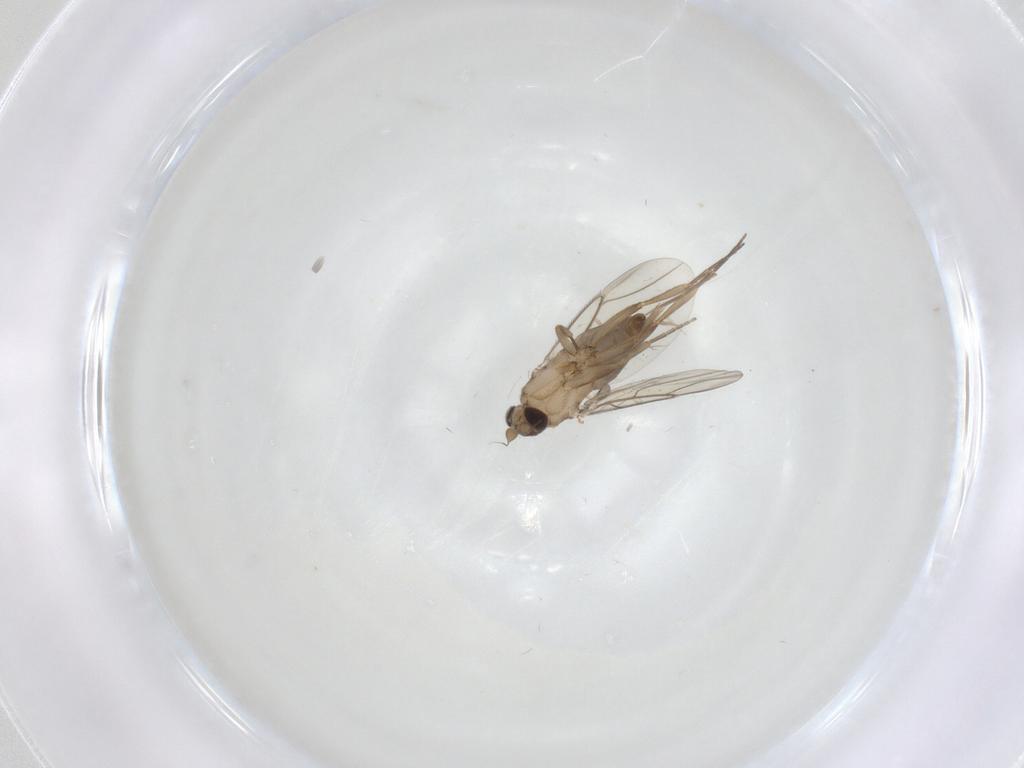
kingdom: Animalia
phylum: Arthropoda
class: Insecta
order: Diptera
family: Phoridae
